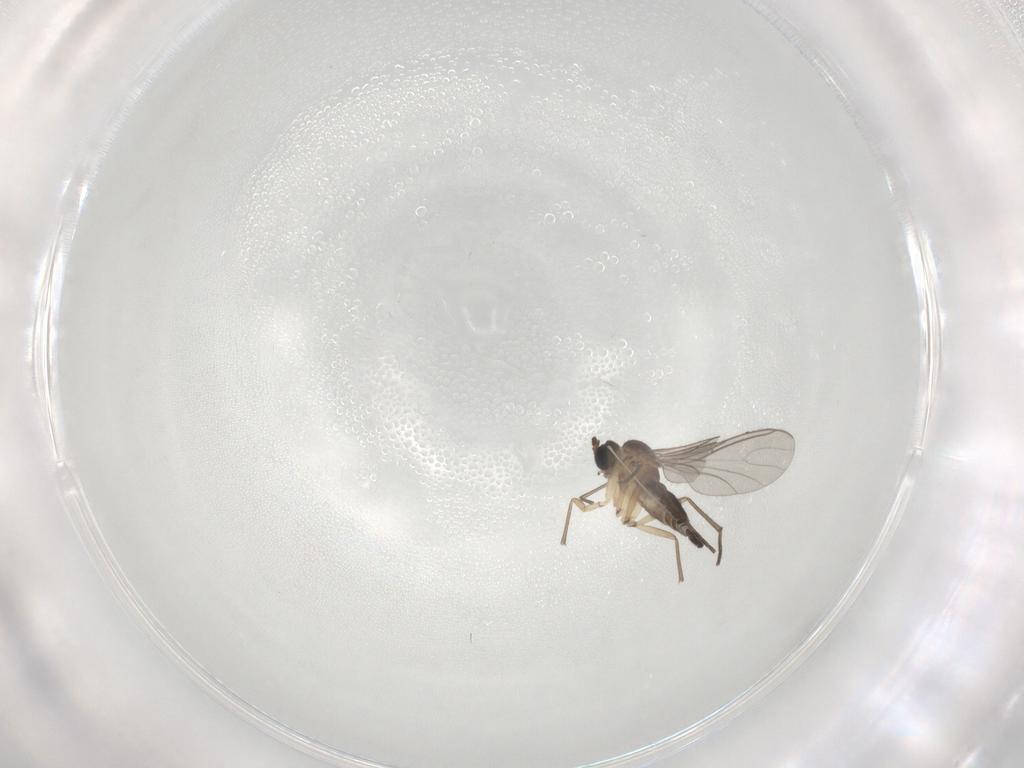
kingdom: Animalia
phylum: Arthropoda
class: Insecta
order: Diptera
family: Sciaridae
